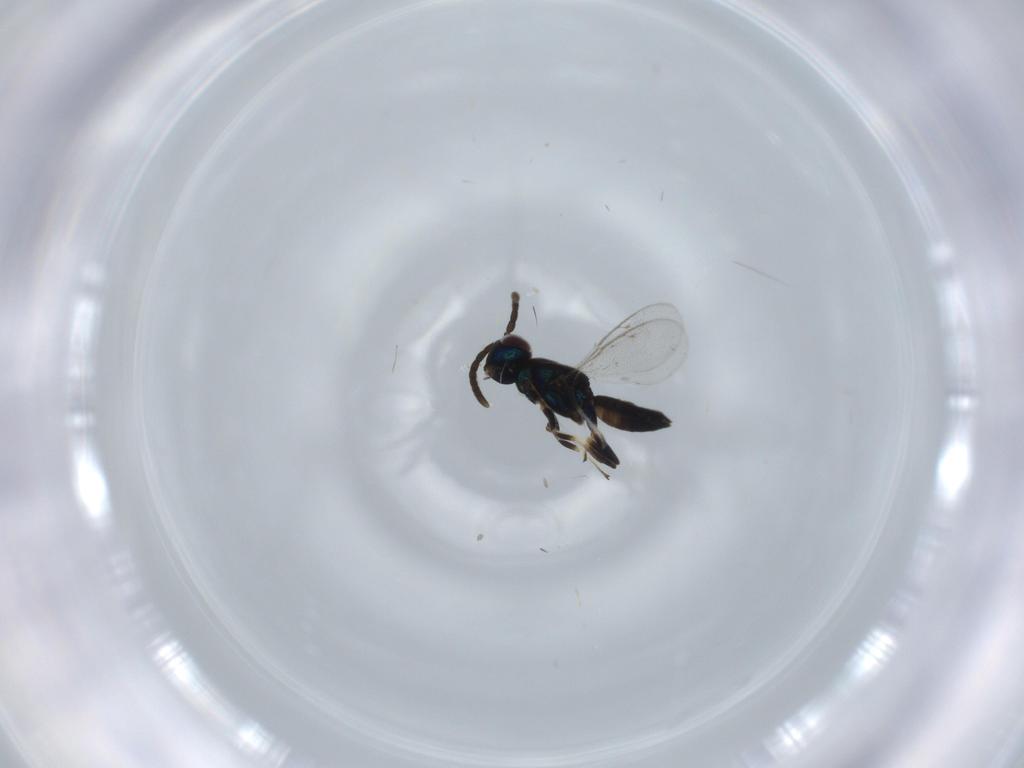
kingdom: Animalia
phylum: Arthropoda
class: Insecta
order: Hymenoptera
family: Eupelmidae
